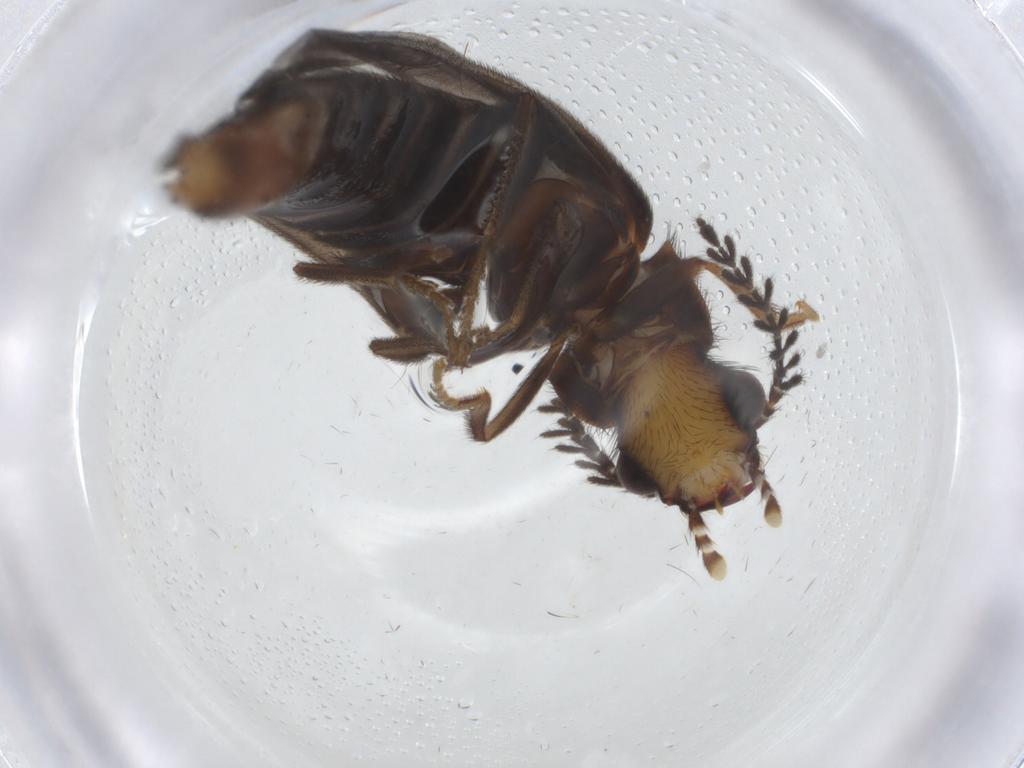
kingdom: Animalia
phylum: Arthropoda
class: Insecta
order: Coleoptera
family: Phengodidae
